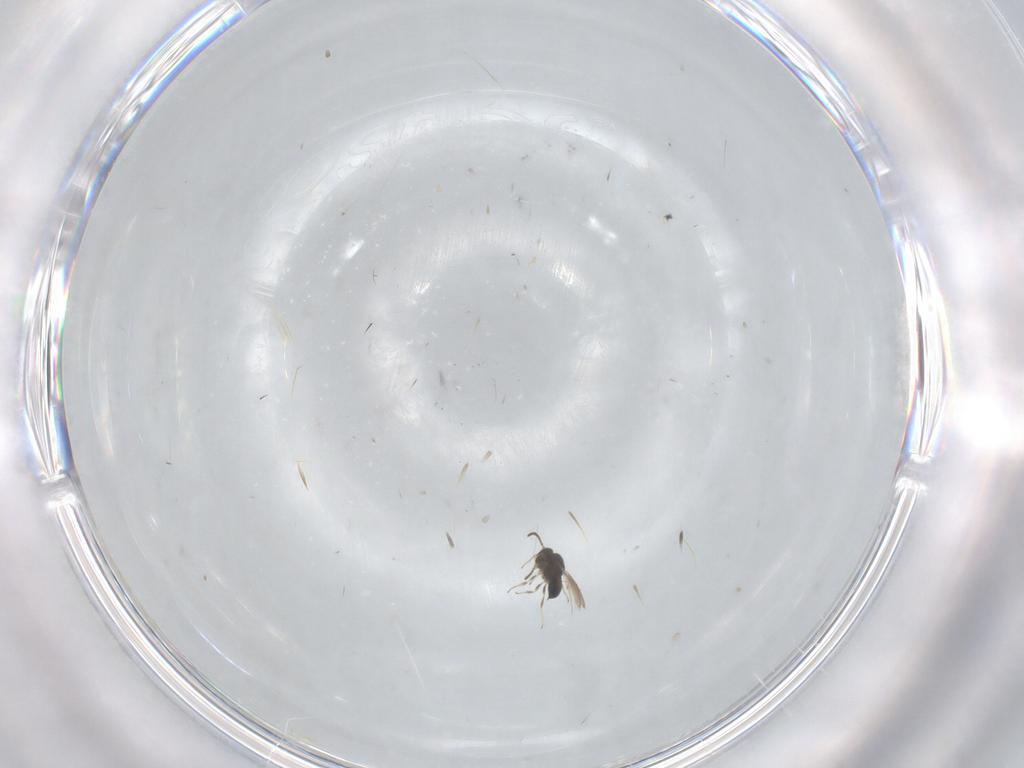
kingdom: Animalia
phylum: Arthropoda
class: Insecta
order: Hymenoptera
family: Scelionidae
